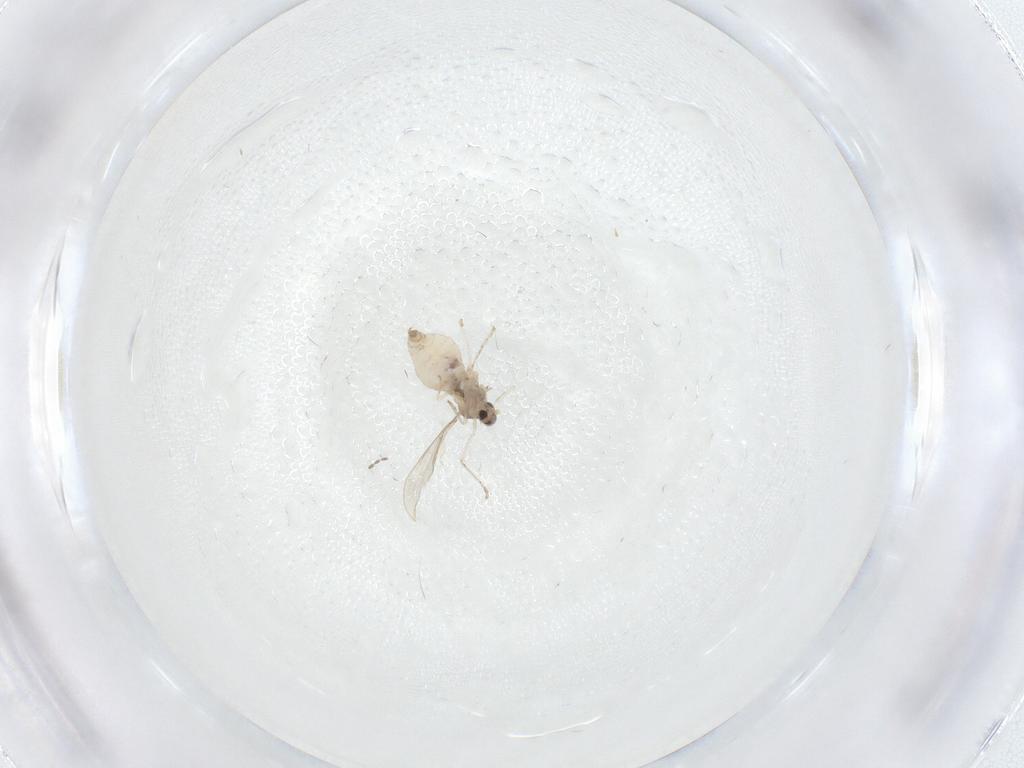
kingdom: Animalia
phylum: Arthropoda
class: Insecta
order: Diptera
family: Cecidomyiidae
